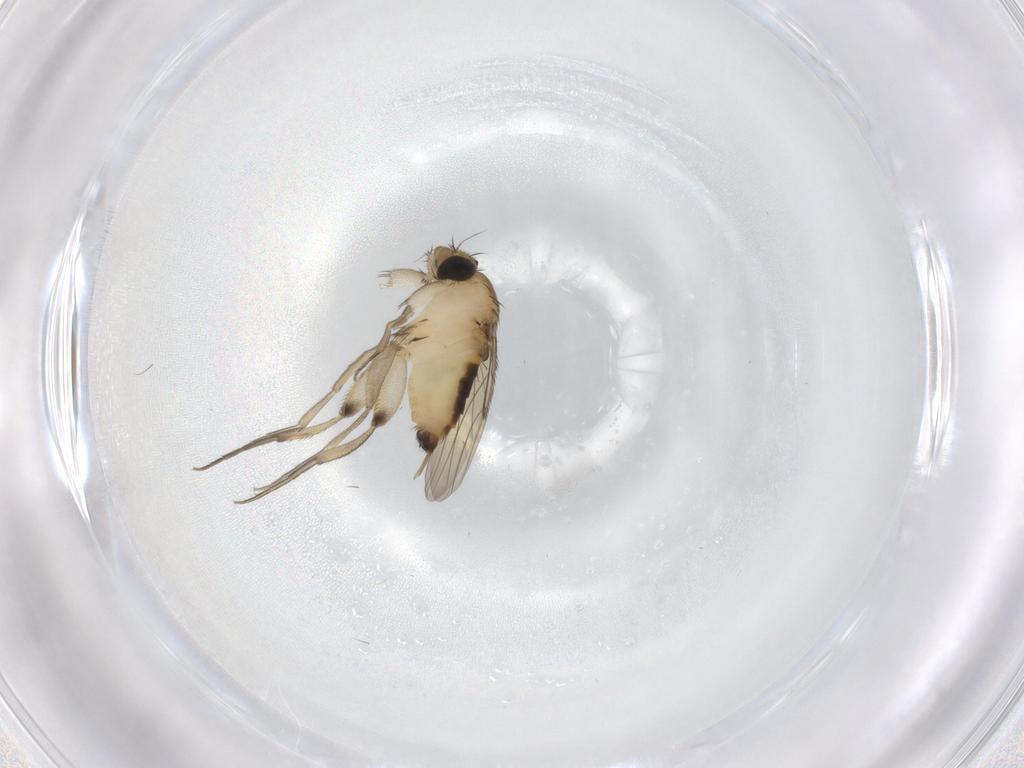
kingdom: Animalia
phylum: Arthropoda
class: Insecta
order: Diptera
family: Phoridae
